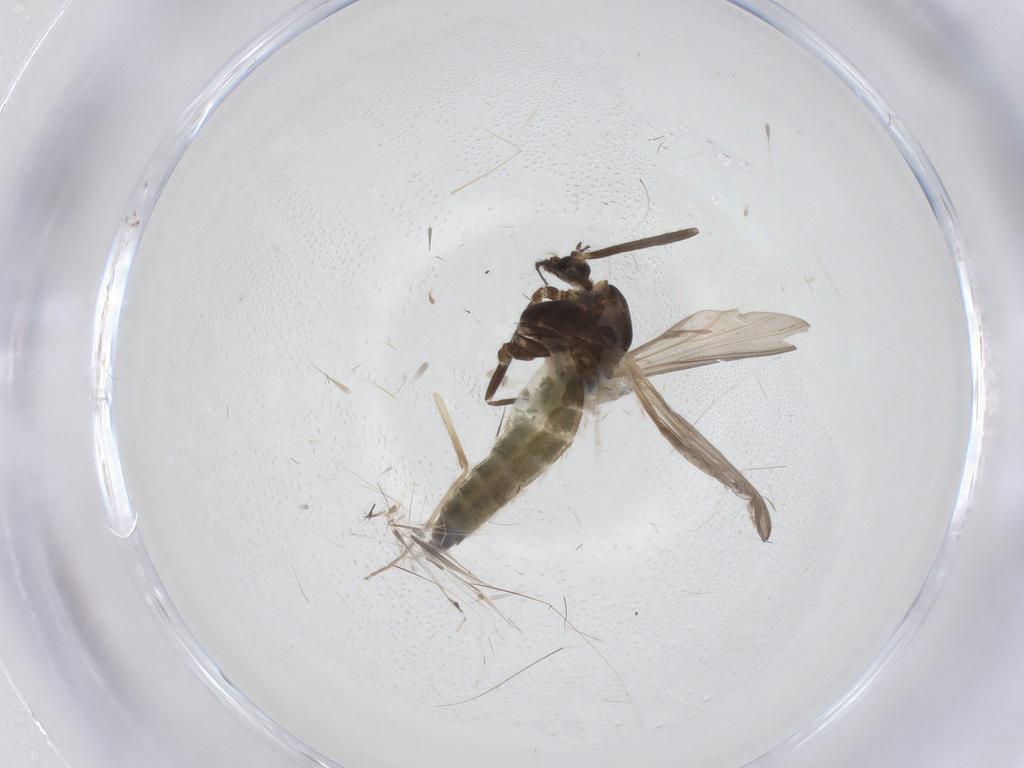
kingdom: Animalia
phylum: Arthropoda
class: Insecta
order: Diptera
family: Chironomidae
